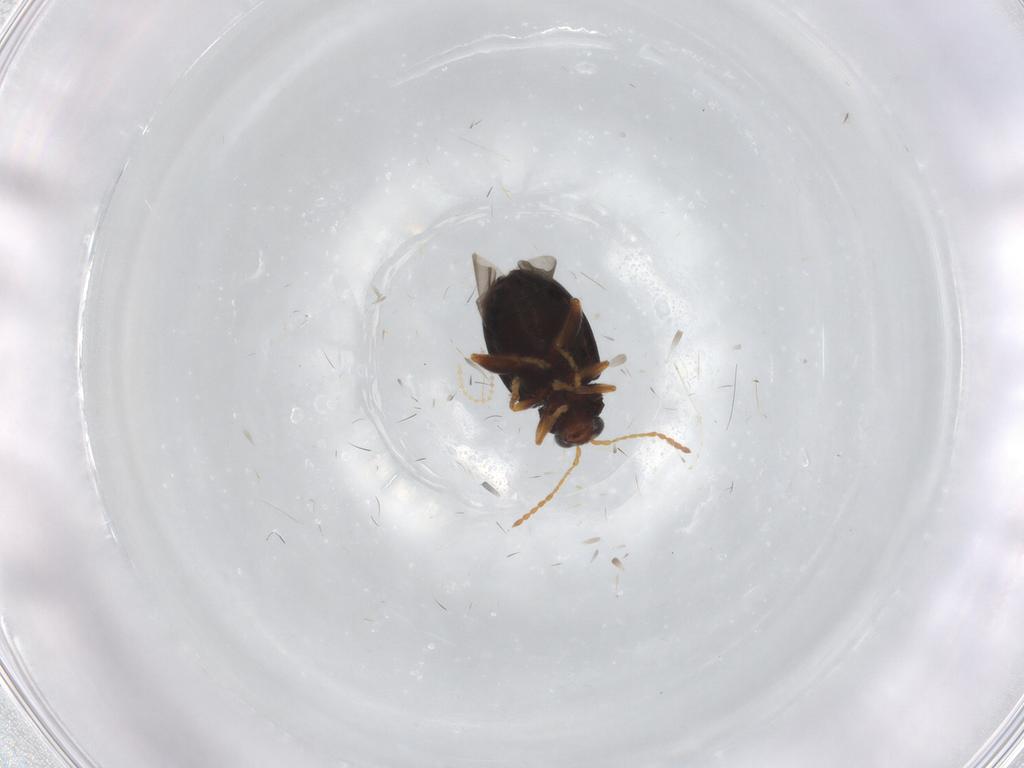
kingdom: Animalia
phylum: Arthropoda
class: Insecta
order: Coleoptera
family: Chrysomelidae
